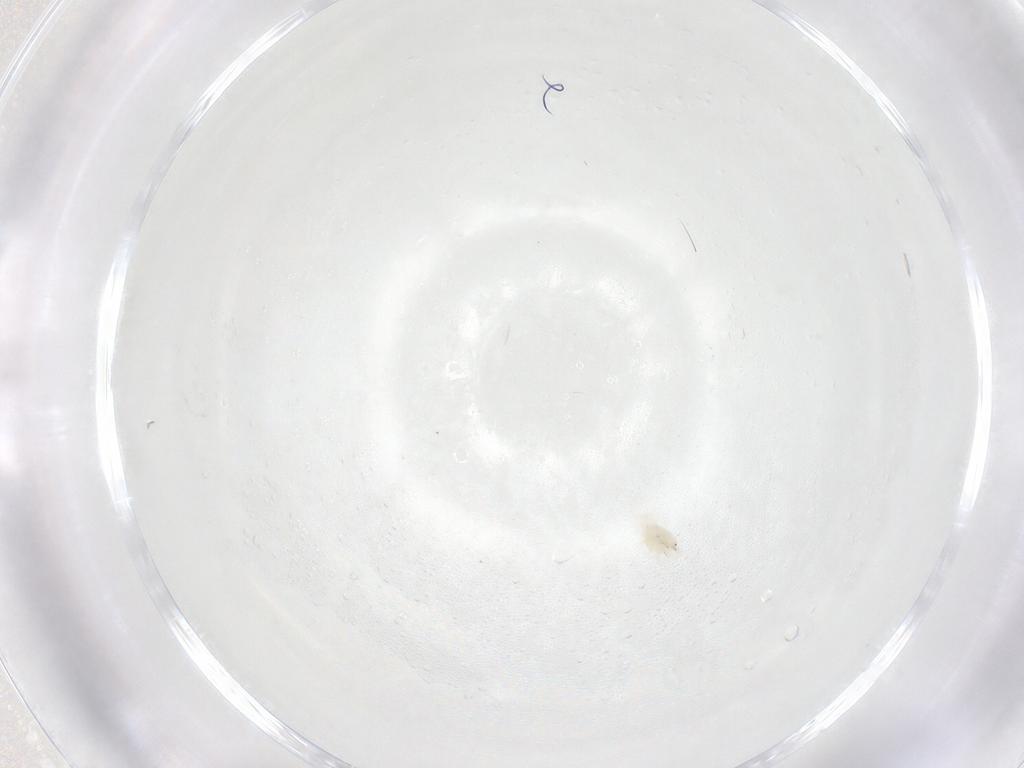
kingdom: Animalia
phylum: Arthropoda
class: Arachnida
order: Trombidiformes
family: Anystidae
